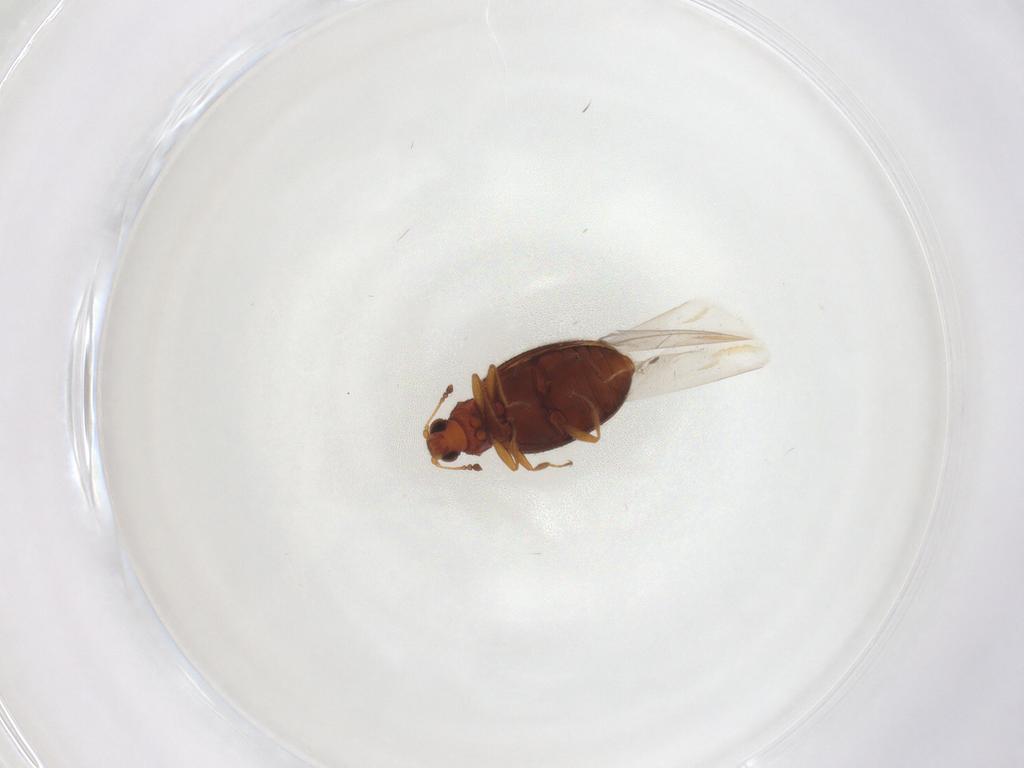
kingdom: Animalia
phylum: Arthropoda
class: Insecta
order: Coleoptera
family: Latridiidae
